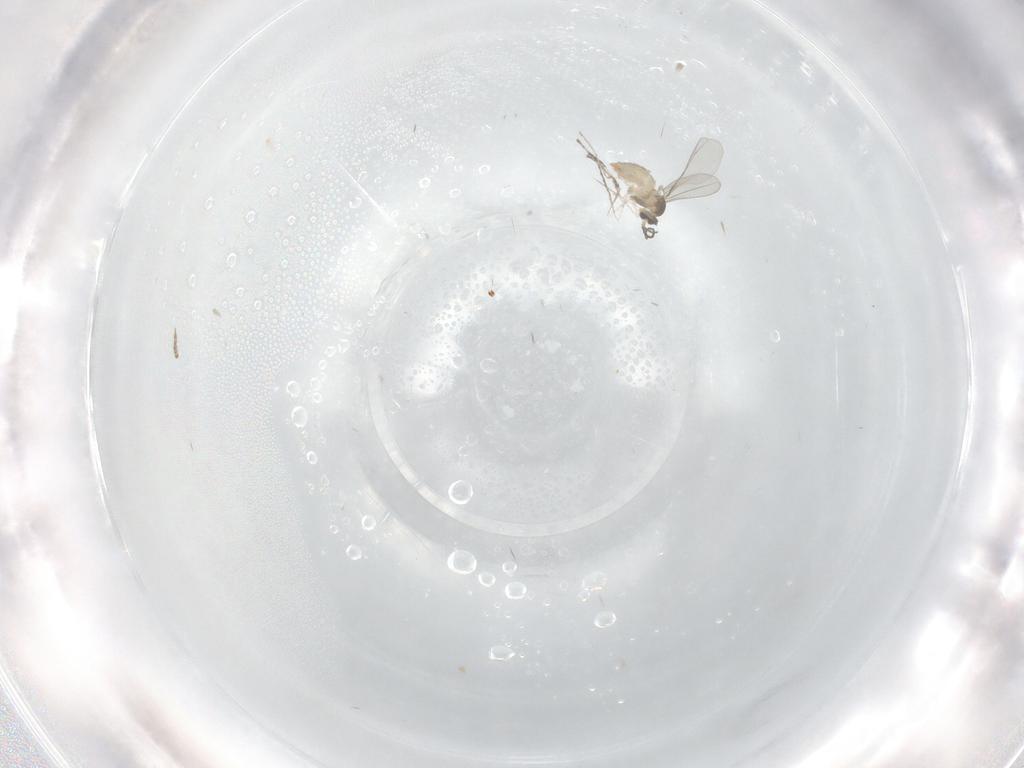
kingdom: Animalia
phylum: Arthropoda
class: Insecta
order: Diptera
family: Cecidomyiidae
